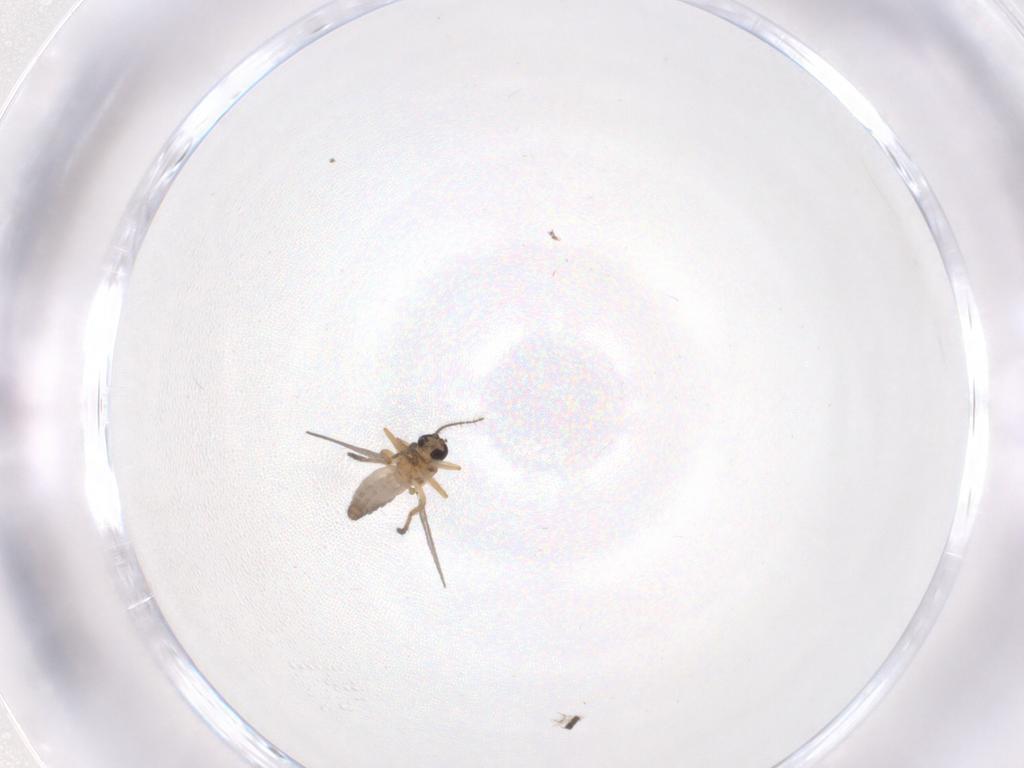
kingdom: Animalia
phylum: Arthropoda
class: Insecta
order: Diptera
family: Ceratopogonidae
